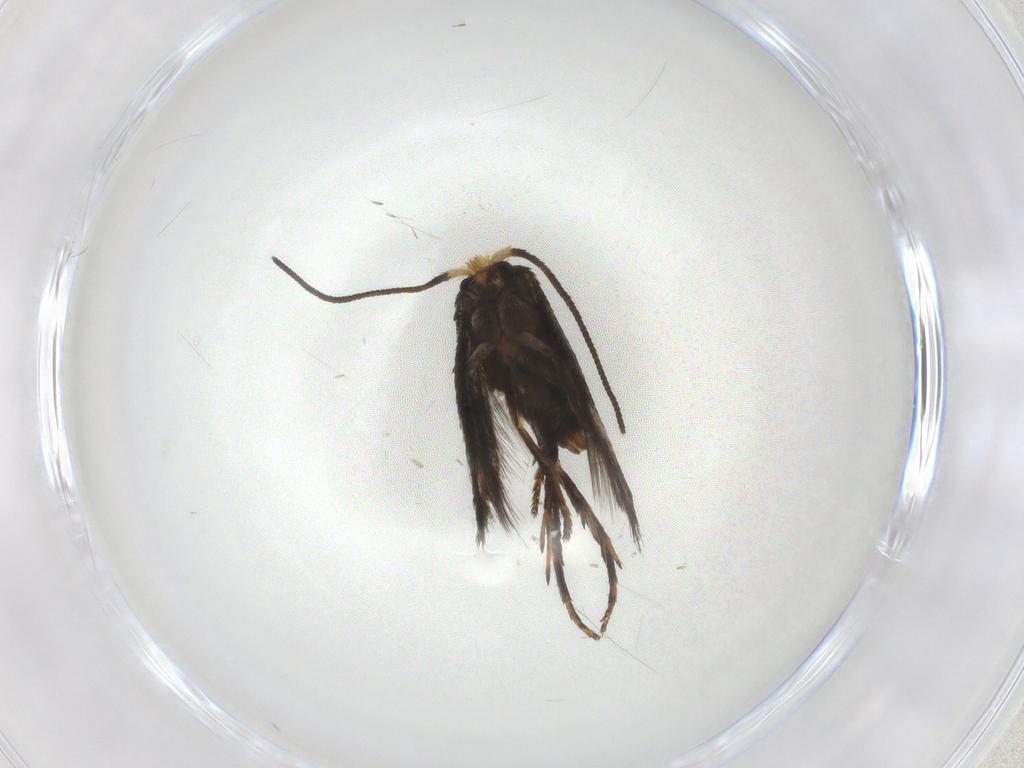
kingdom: Animalia
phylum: Arthropoda
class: Insecta
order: Lepidoptera
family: Nepticulidae
